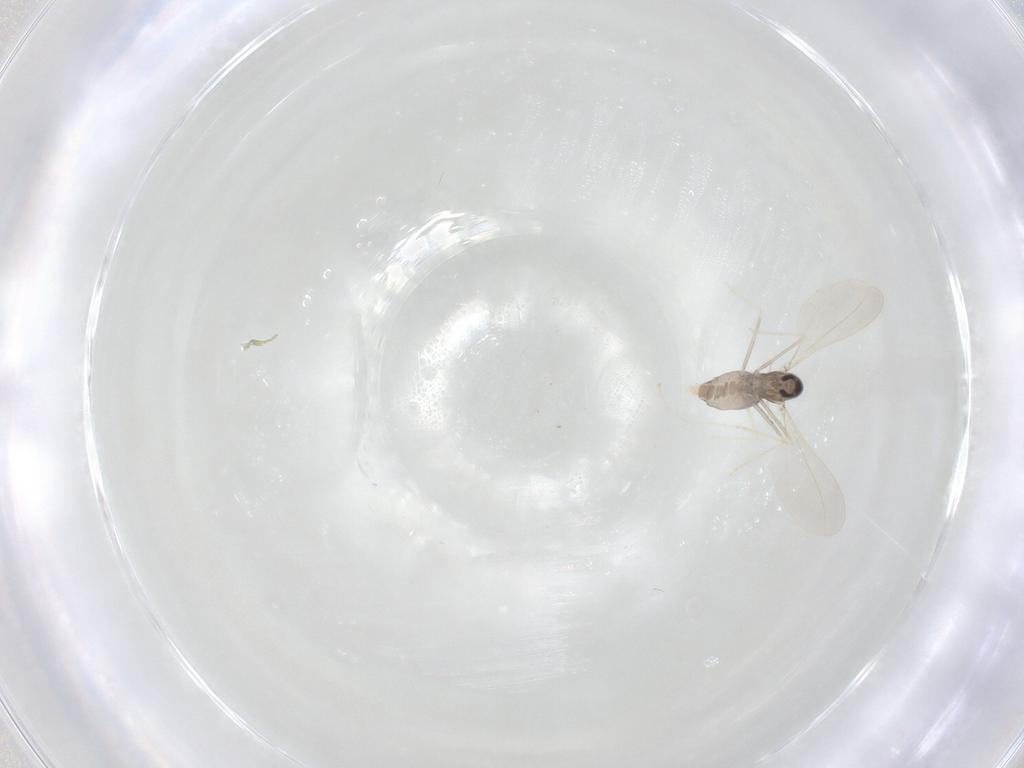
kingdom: Animalia
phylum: Arthropoda
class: Insecta
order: Diptera
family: Cecidomyiidae
